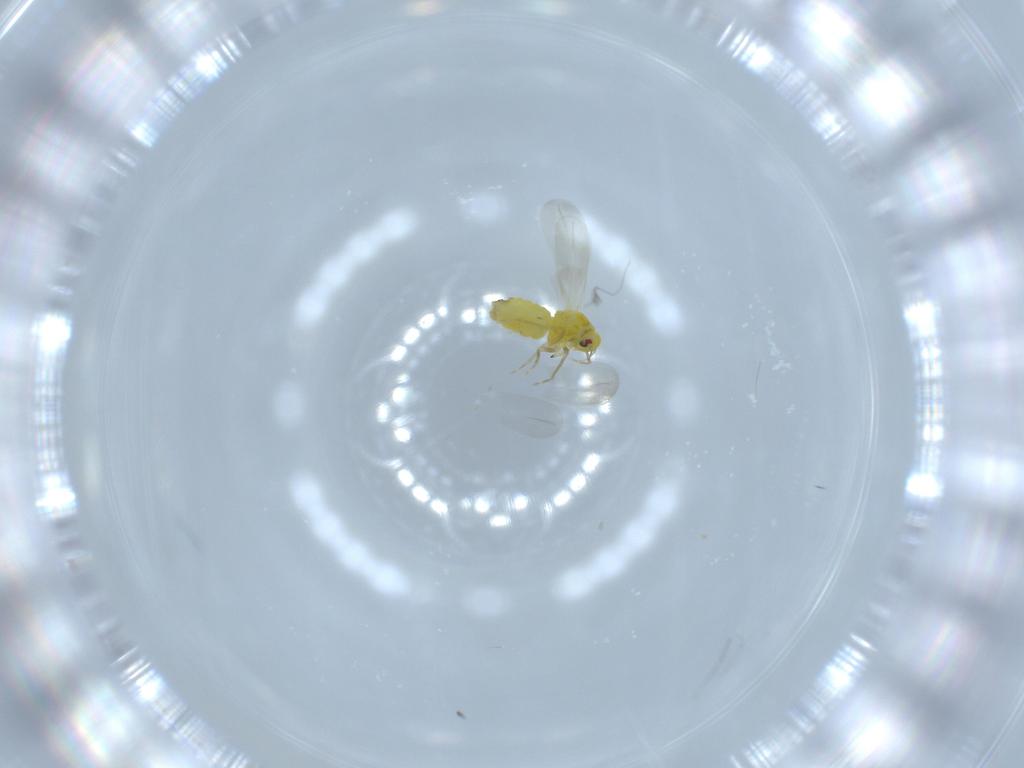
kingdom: Animalia
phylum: Arthropoda
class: Insecta
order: Hemiptera
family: Aleyrodidae
